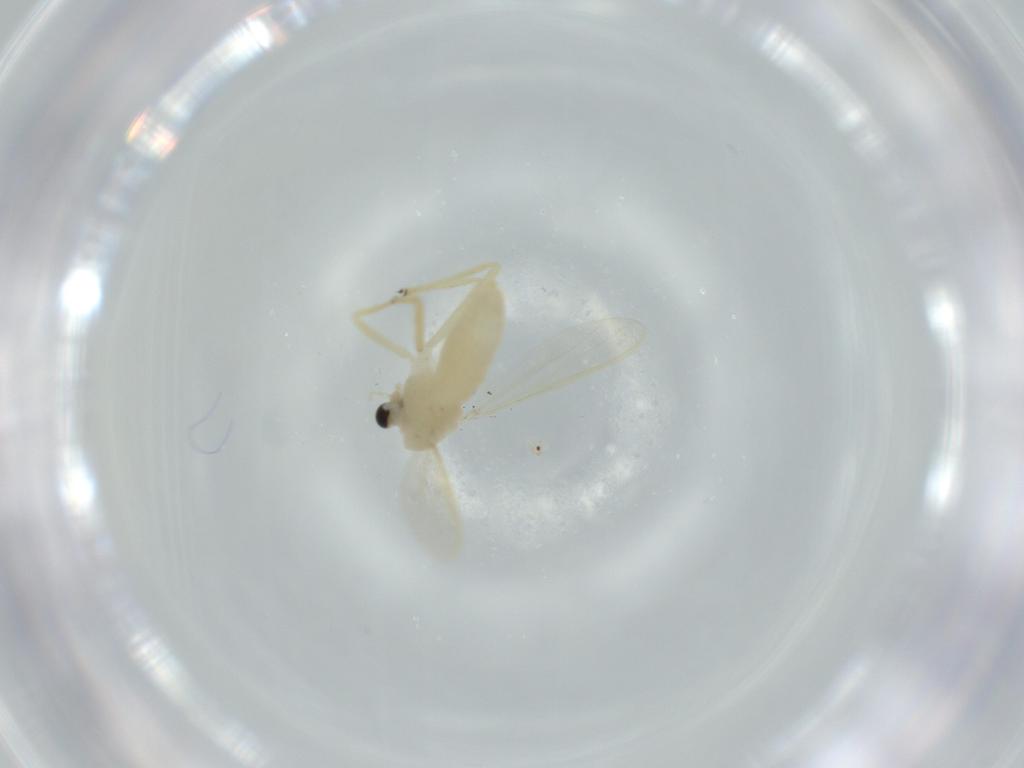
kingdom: Animalia
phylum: Arthropoda
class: Insecta
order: Diptera
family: Chironomidae
